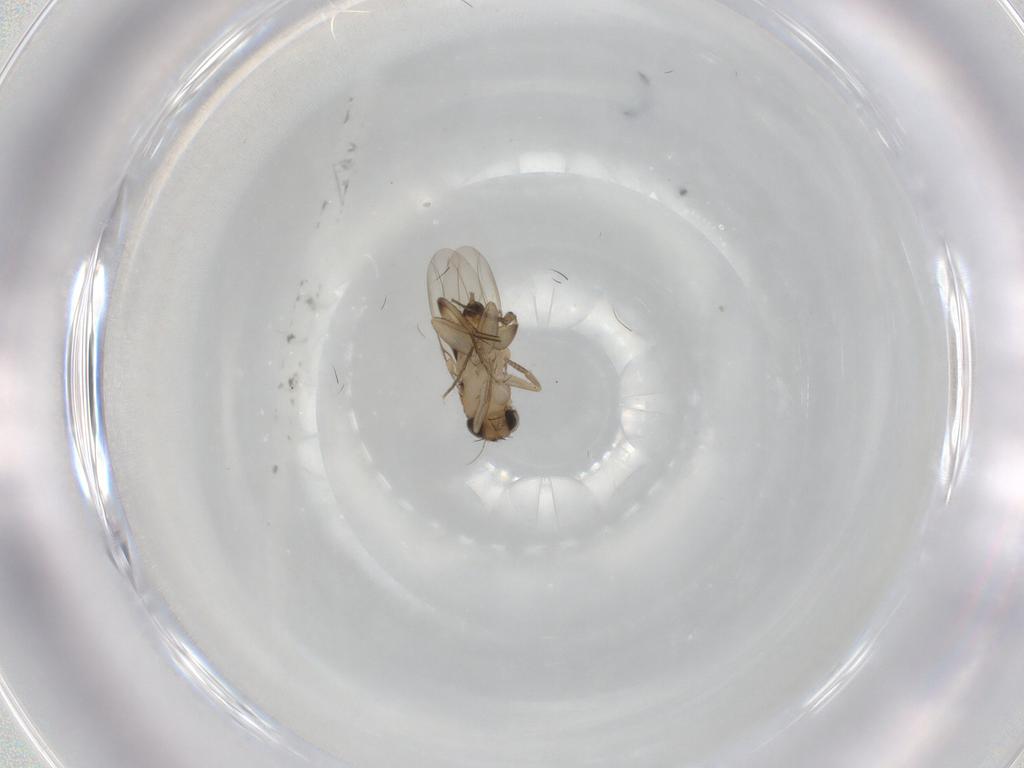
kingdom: Animalia
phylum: Arthropoda
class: Insecta
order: Diptera
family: Phoridae
